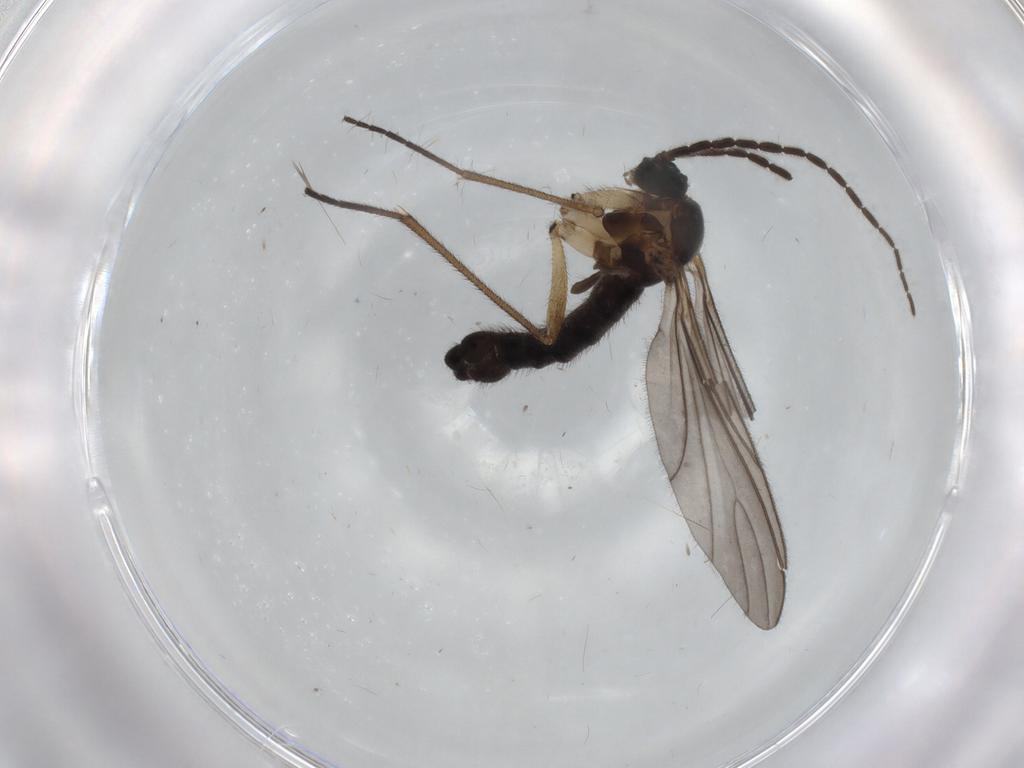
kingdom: Animalia
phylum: Arthropoda
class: Insecta
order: Diptera
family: Sciaridae
